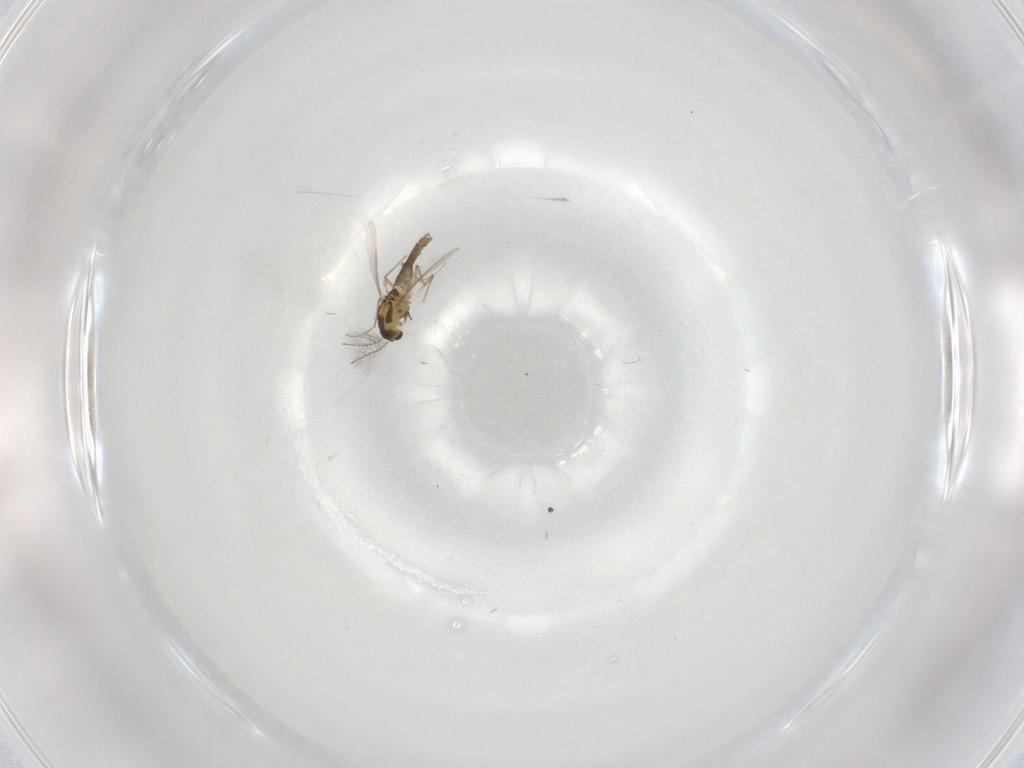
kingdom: Animalia
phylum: Arthropoda
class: Insecta
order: Diptera
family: Chironomidae
